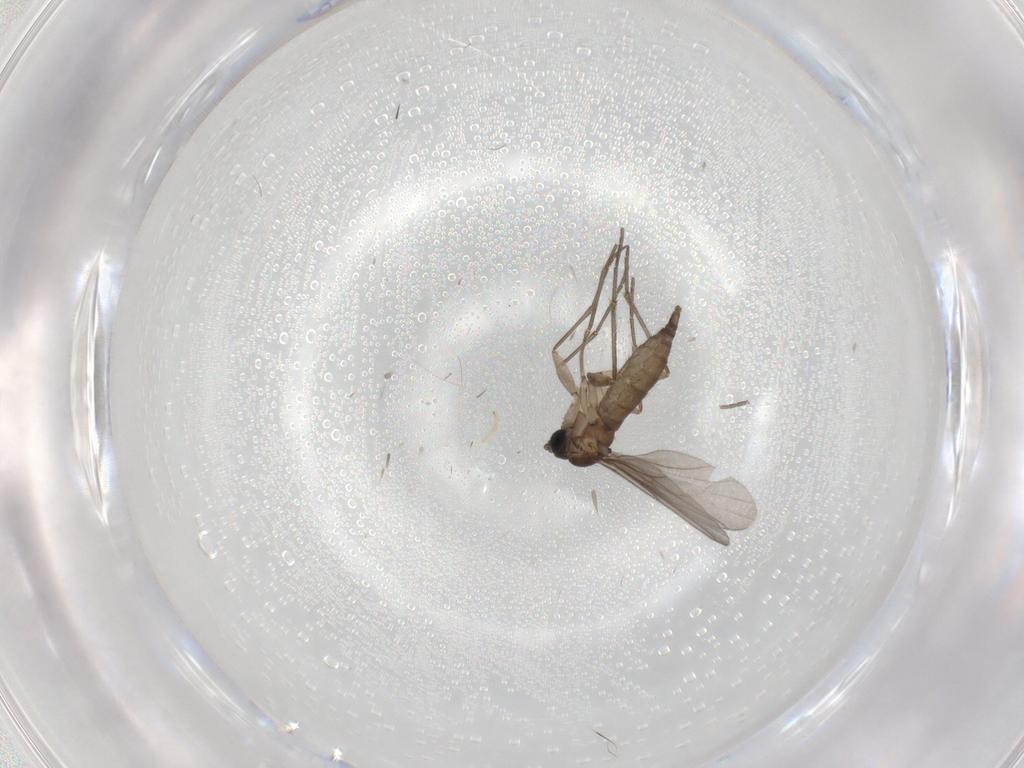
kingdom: Animalia
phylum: Arthropoda
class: Insecta
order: Diptera
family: Sciaridae
